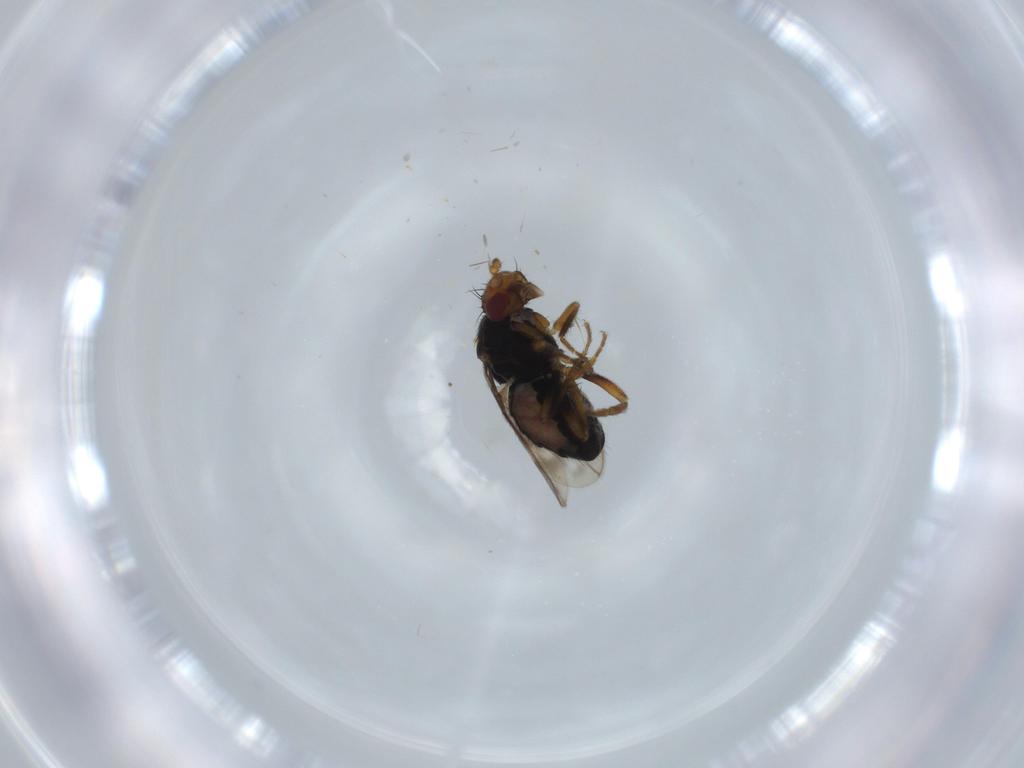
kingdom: Animalia
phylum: Arthropoda
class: Insecta
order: Diptera
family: Sphaeroceridae
